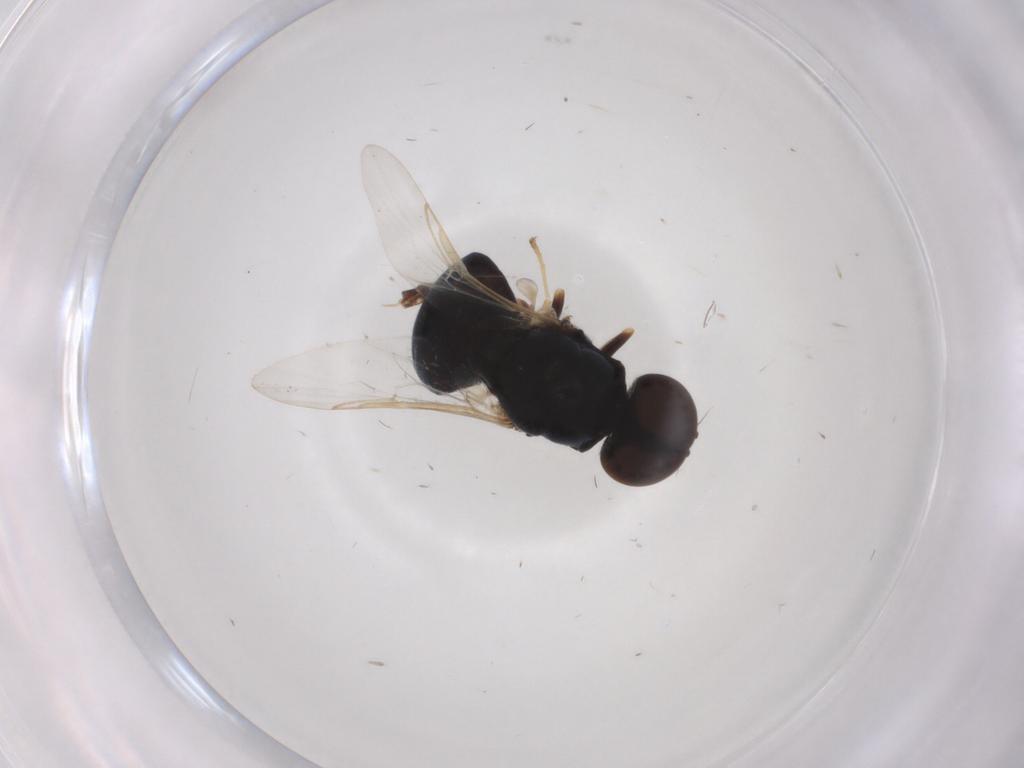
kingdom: Animalia
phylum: Arthropoda
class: Insecta
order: Diptera
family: Stratiomyidae
